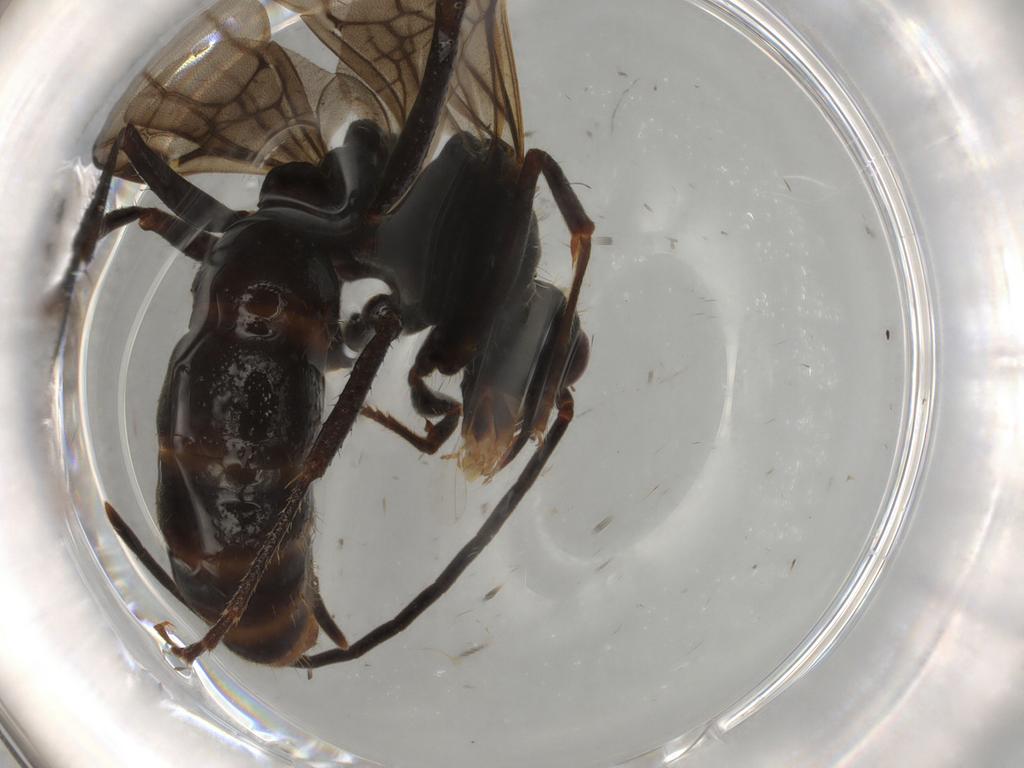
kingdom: Animalia
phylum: Arthropoda
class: Insecta
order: Hymenoptera
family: Formicidae
